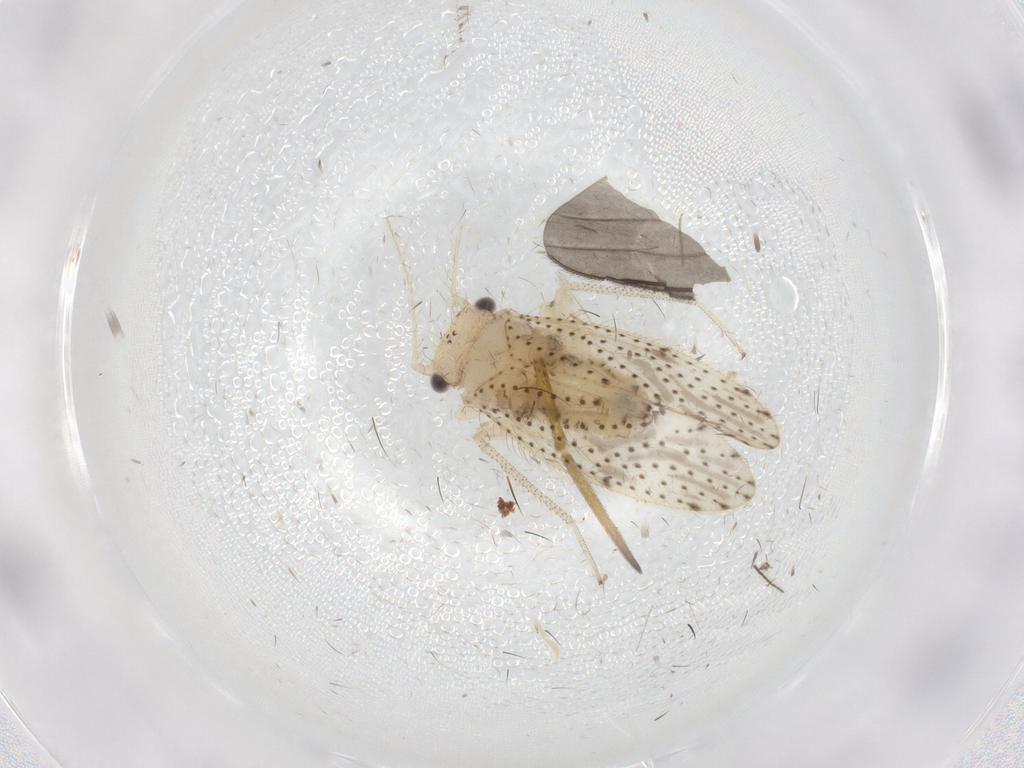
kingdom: Animalia
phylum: Arthropoda
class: Insecta
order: Psocodea
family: Myopsocidae
